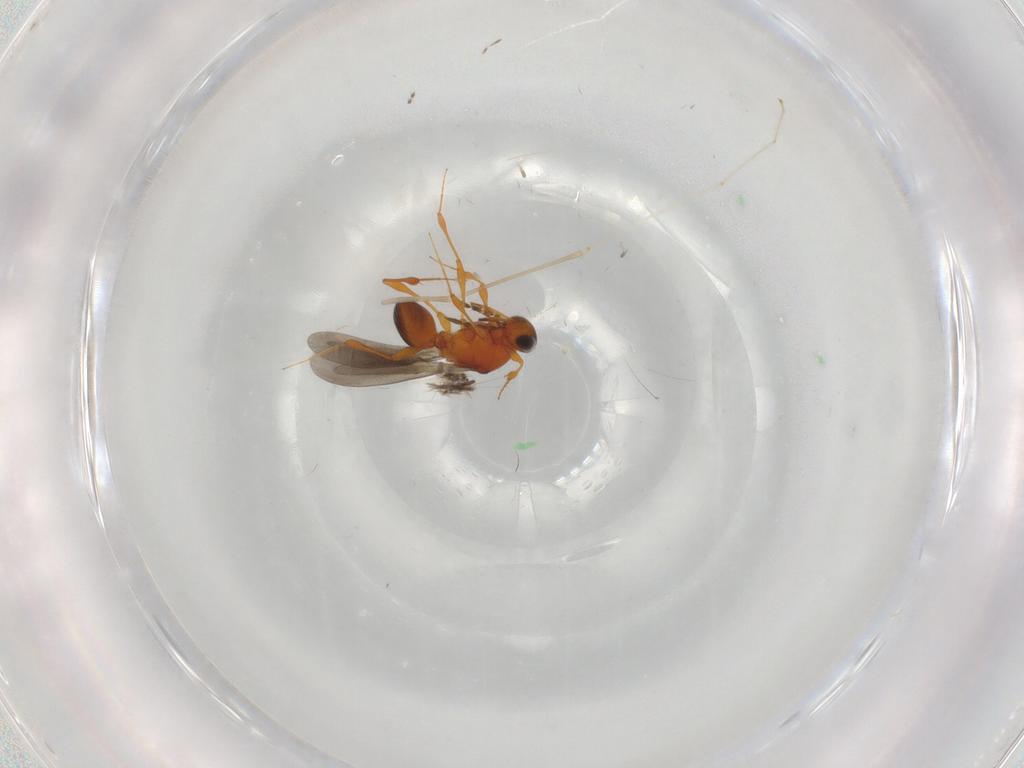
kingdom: Animalia
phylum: Arthropoda
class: Insecta
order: Hymenoptera
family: Platygastridae
